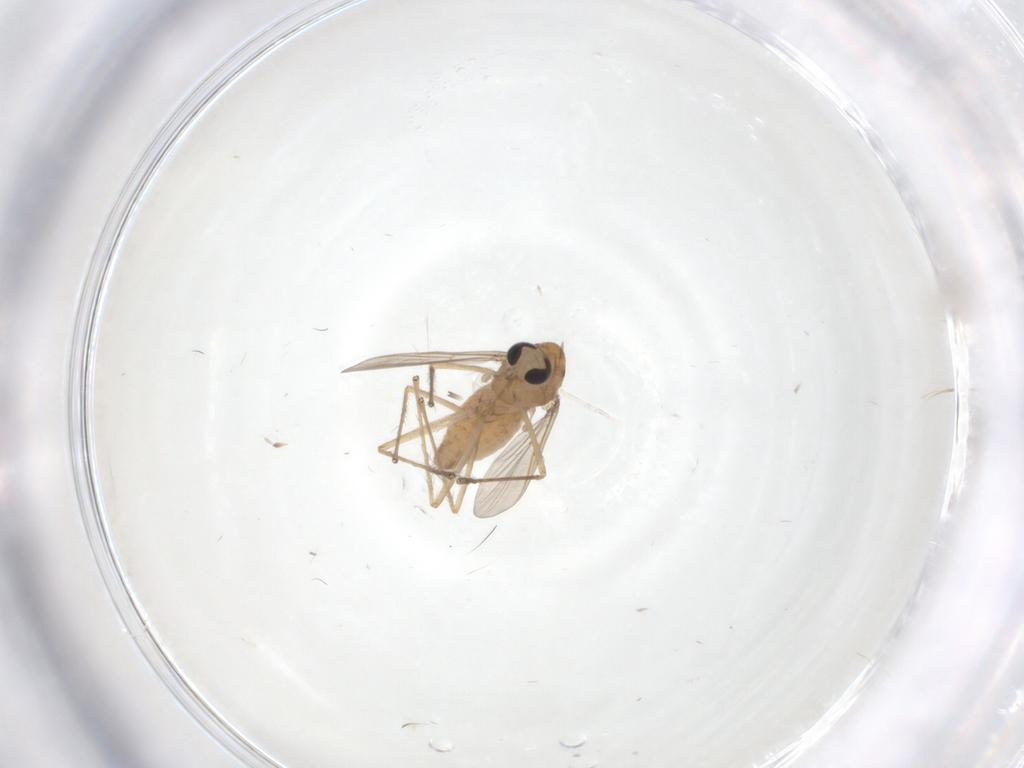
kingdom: Animalia
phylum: Arthropoda
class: Insecta
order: Diptera
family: Chironomidae
